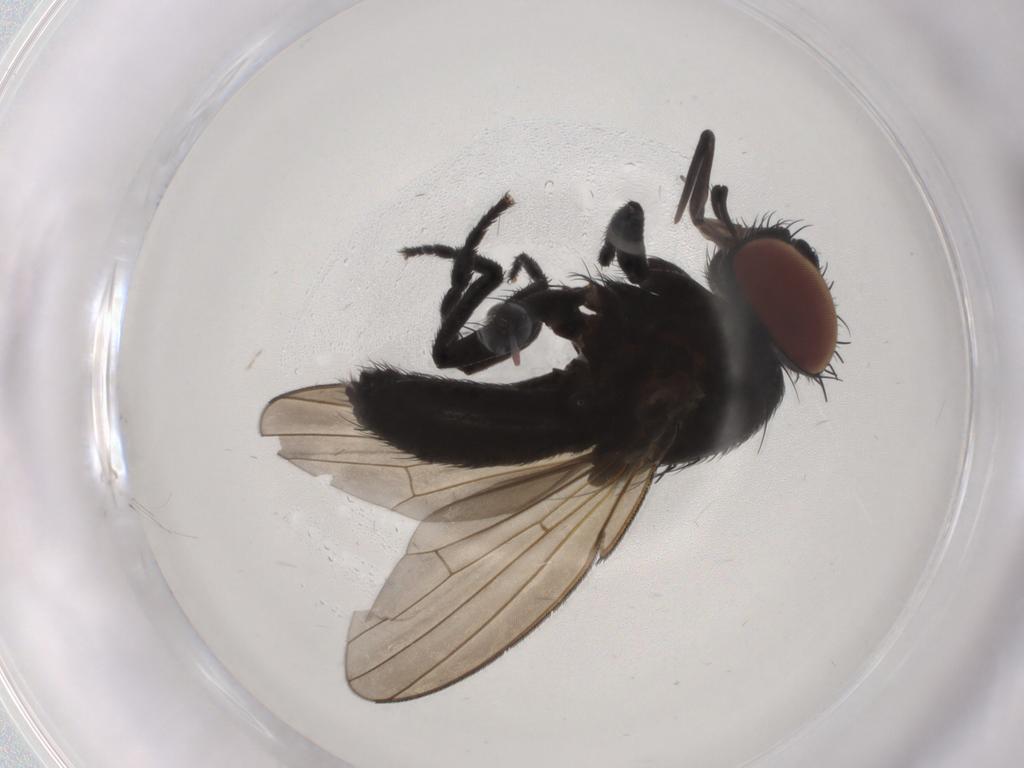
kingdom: Animalia
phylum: Arthropoda
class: Insecta
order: Diptera
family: Milichiidae
